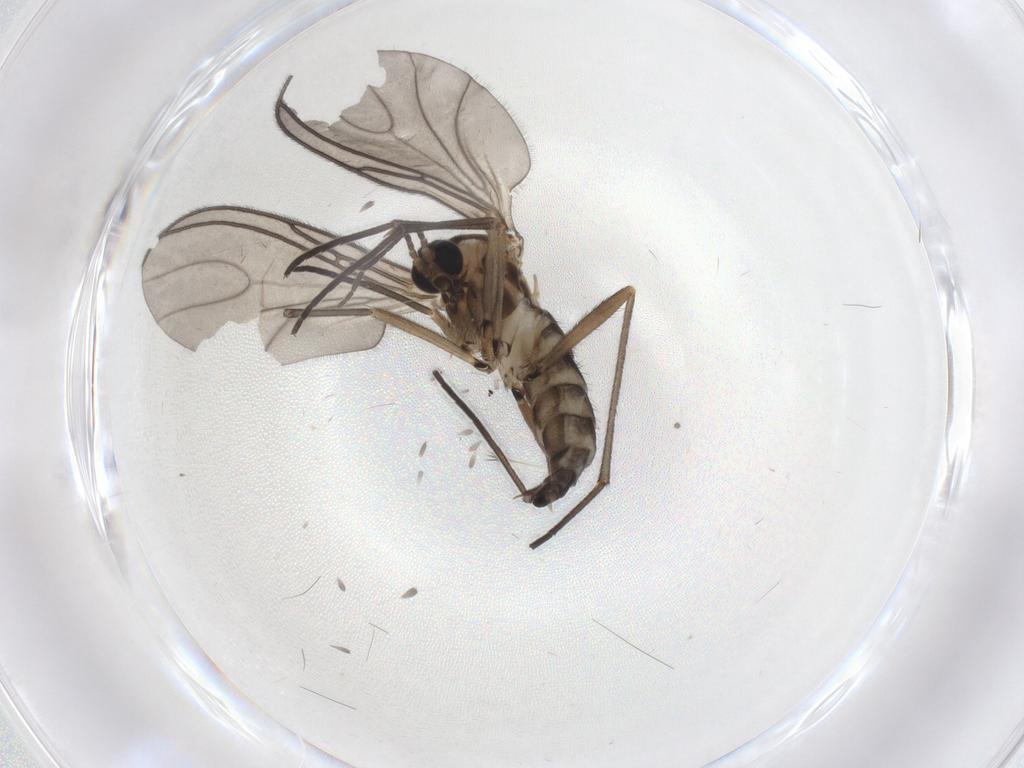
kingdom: Animalia
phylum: Arthropoda
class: Insecta
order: Diptera
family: Sciaridae
